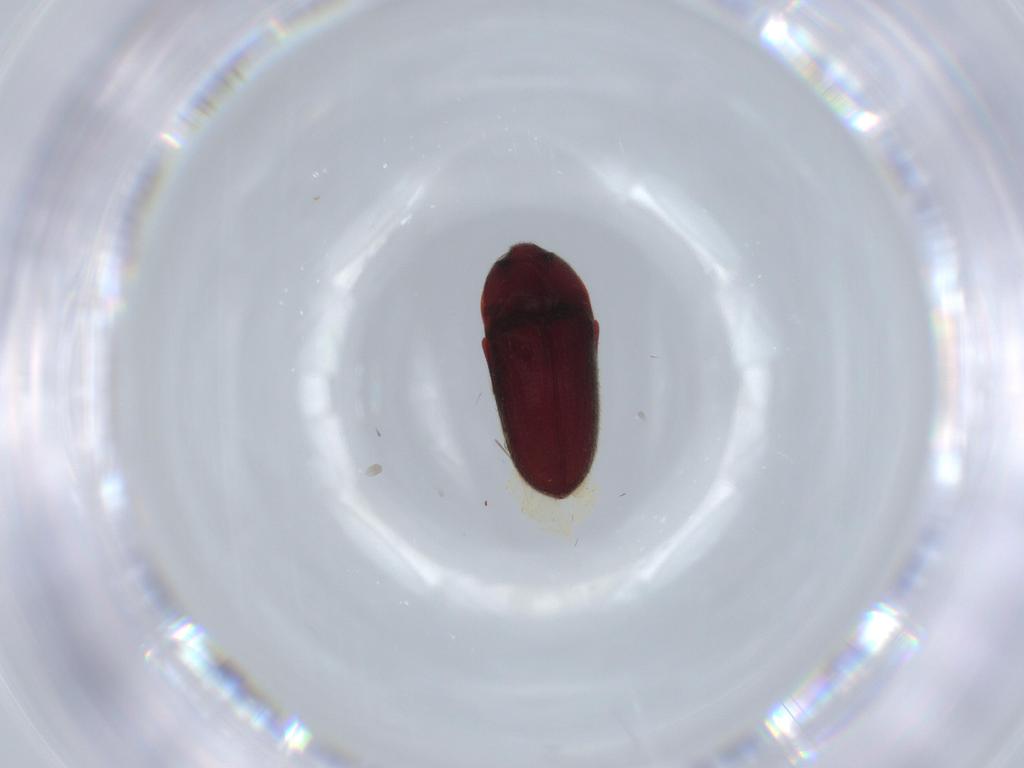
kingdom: Animalia
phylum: Arthropoda
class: Insecta
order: Coleoptera
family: Throscidae
